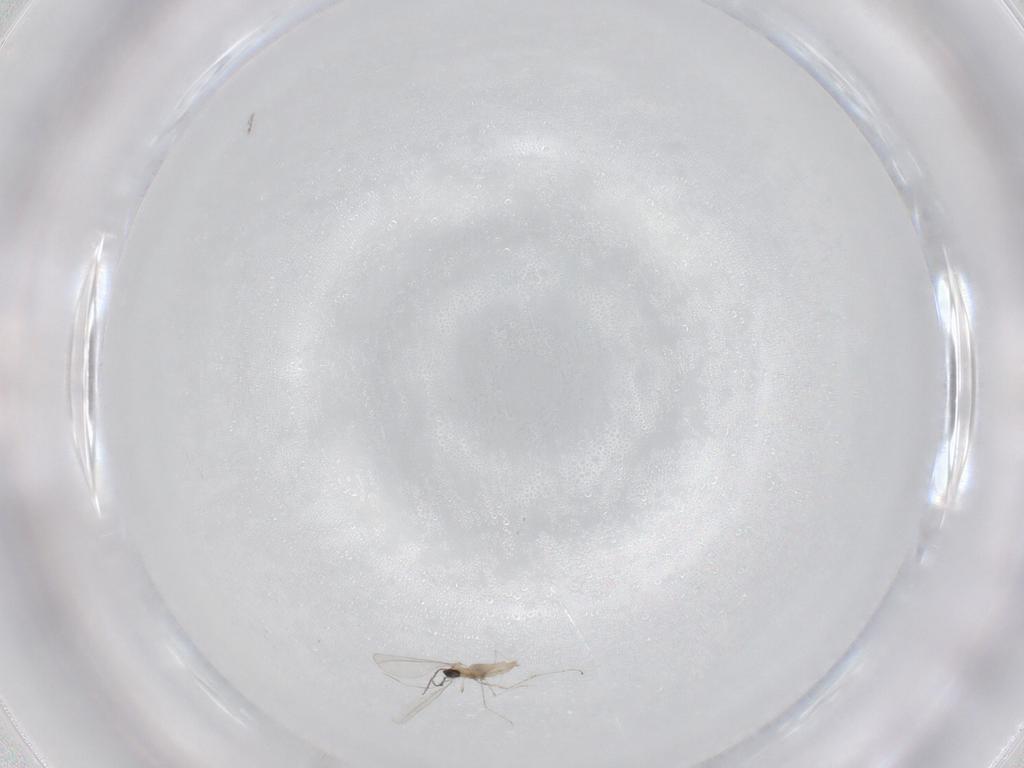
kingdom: Animalia
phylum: Arthropoda
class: Insecta
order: Diptera
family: Cecidomyiidae
